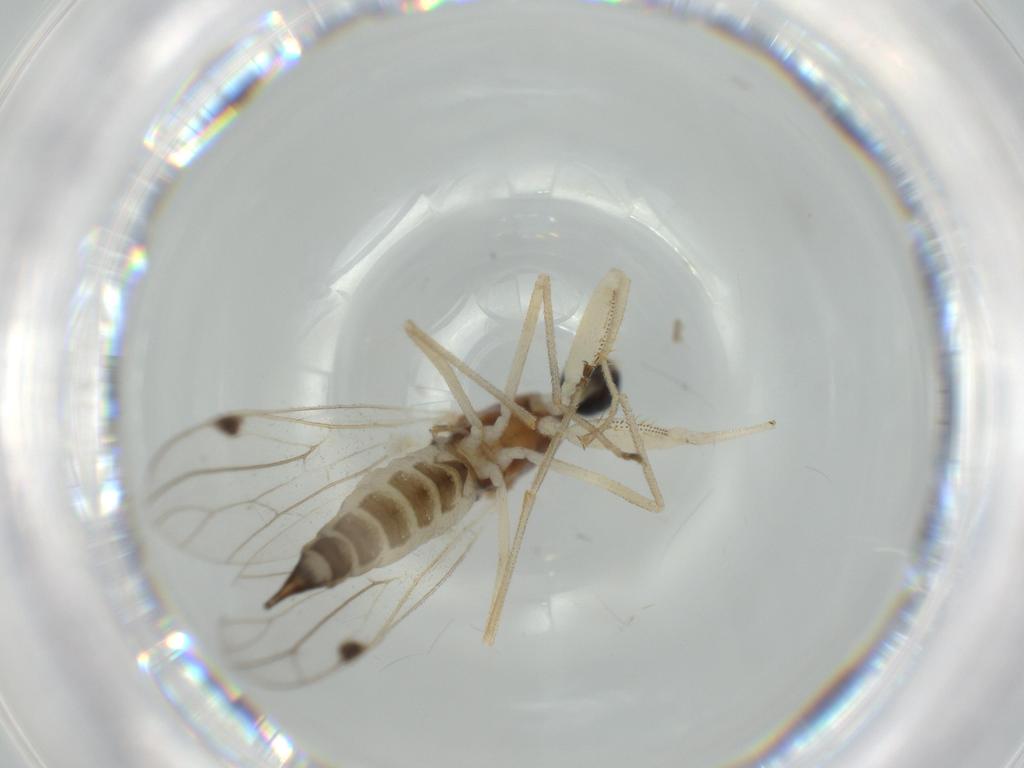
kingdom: Animalia
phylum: Arthropoda
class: Insecta
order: Diptera
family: Empididae
